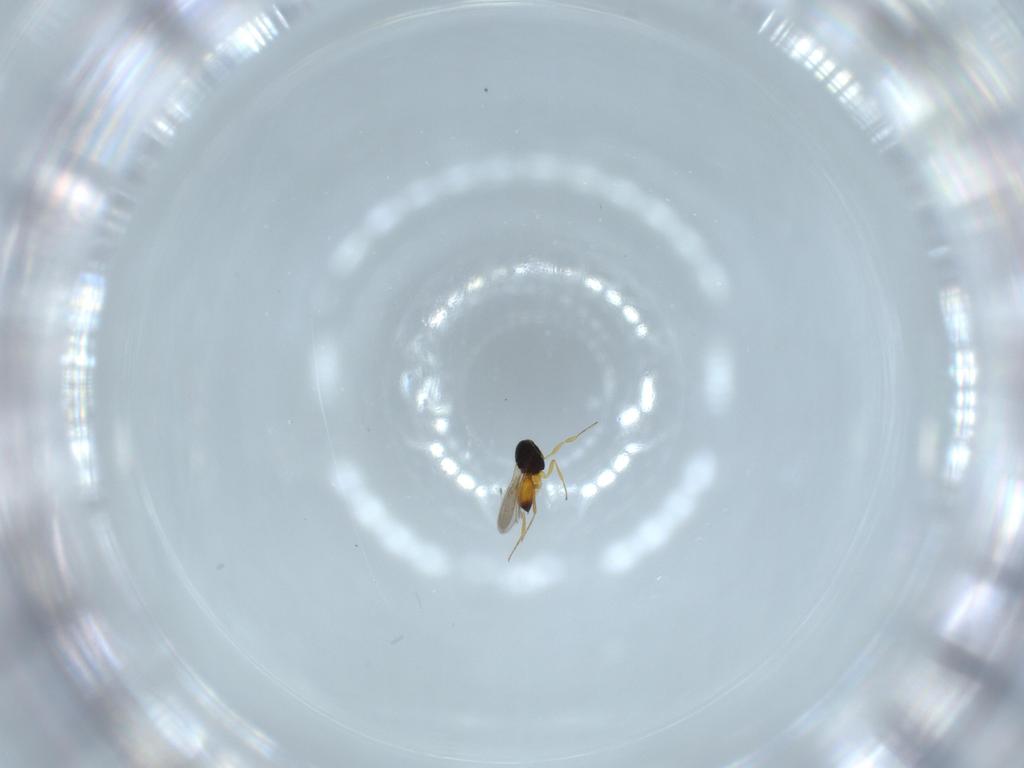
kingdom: Animalia
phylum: Arthropoda
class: Insecta
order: Hymenoptera
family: Scelionidae
